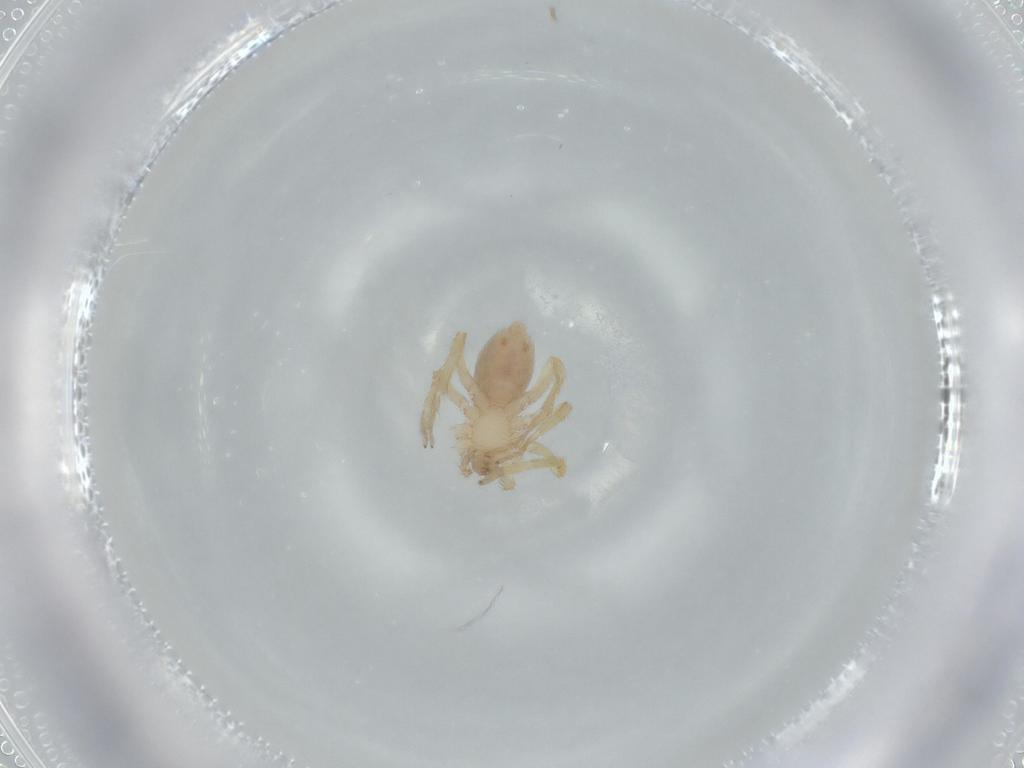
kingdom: Animalia
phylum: Arthropoda
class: Arachnida
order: Araneae
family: Oonopidae
